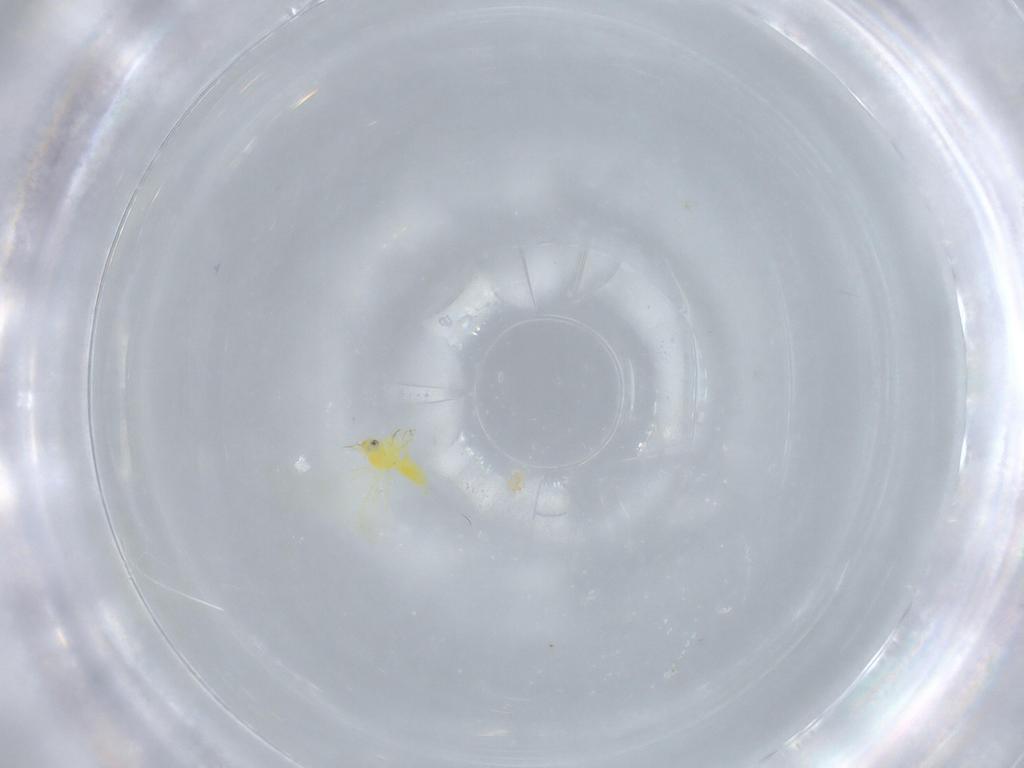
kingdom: Animalia
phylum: Arthropoda
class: Insecta
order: Hemiptera
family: Aleyrodidae
